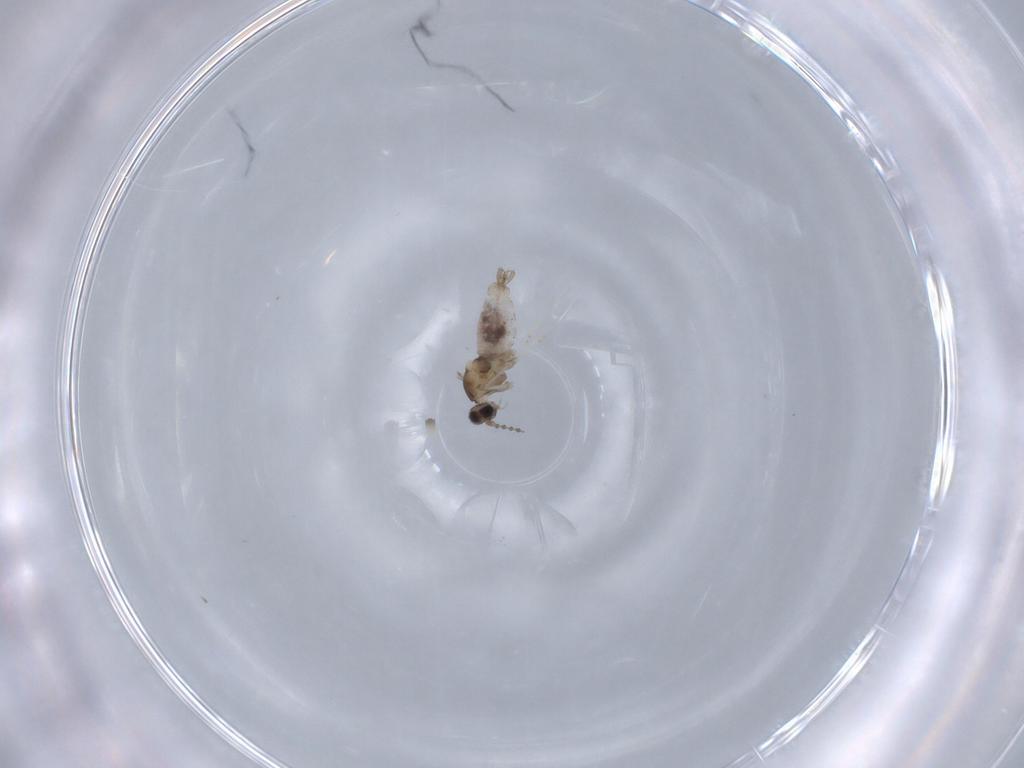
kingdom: Animalia
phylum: Arthropoda
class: Insecta
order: Diptera
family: Cecidomyiidae
